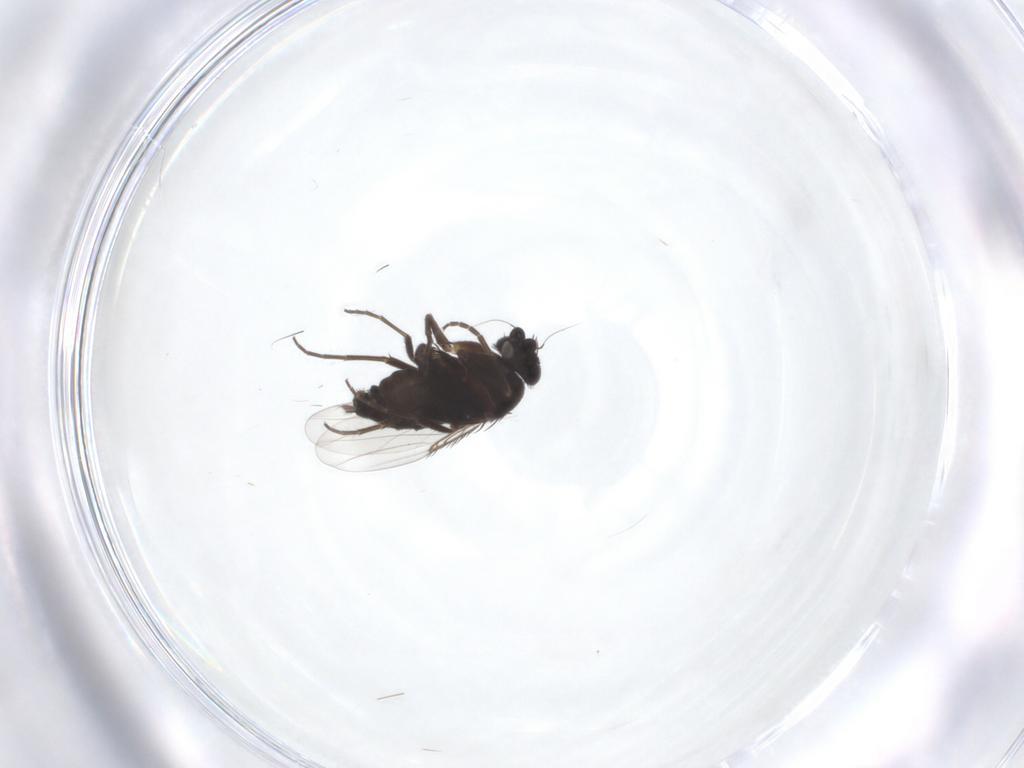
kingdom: Animalia
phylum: Arthropoda
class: Insecta
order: Diptera
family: Phoridae
